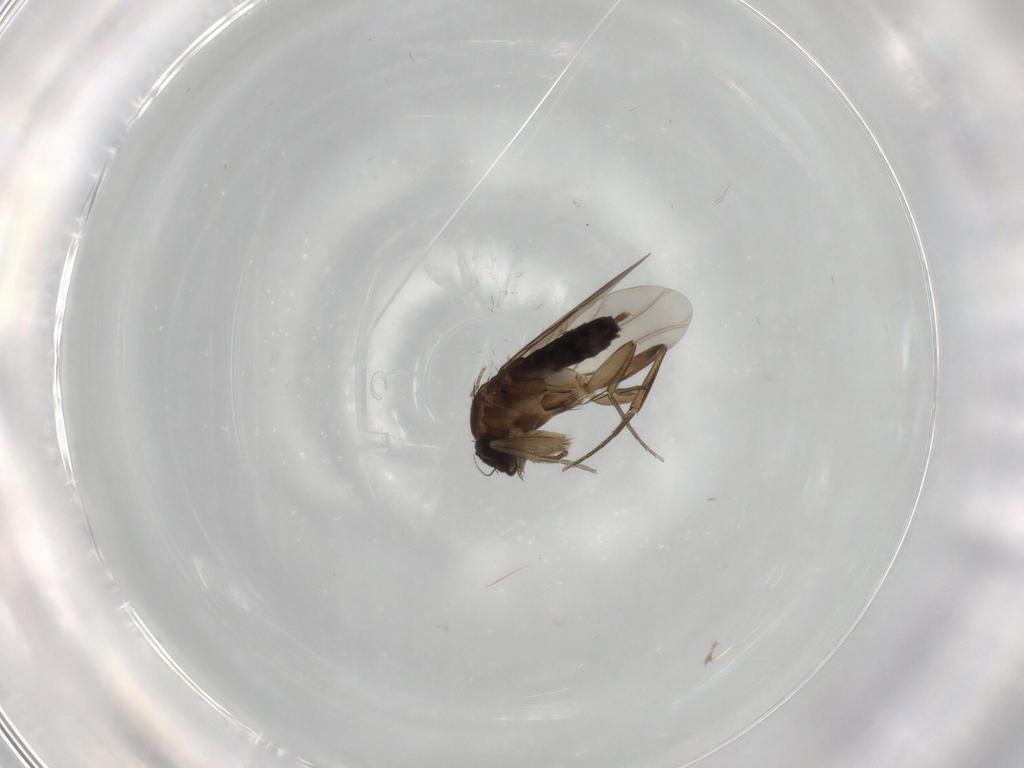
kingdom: Animalia
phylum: Arthropoda
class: Insecta
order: Diptera
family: Phoridae
